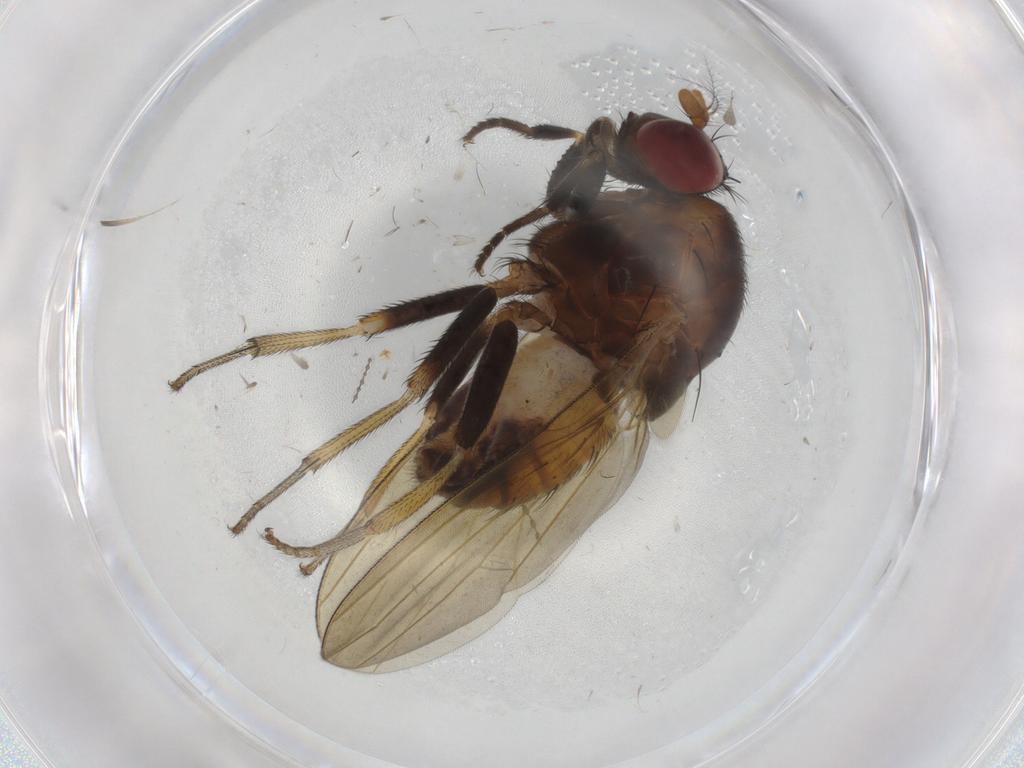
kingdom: Animalia
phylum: Arthropoda
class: Insecta
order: Diptera
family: Lauxaniidae
